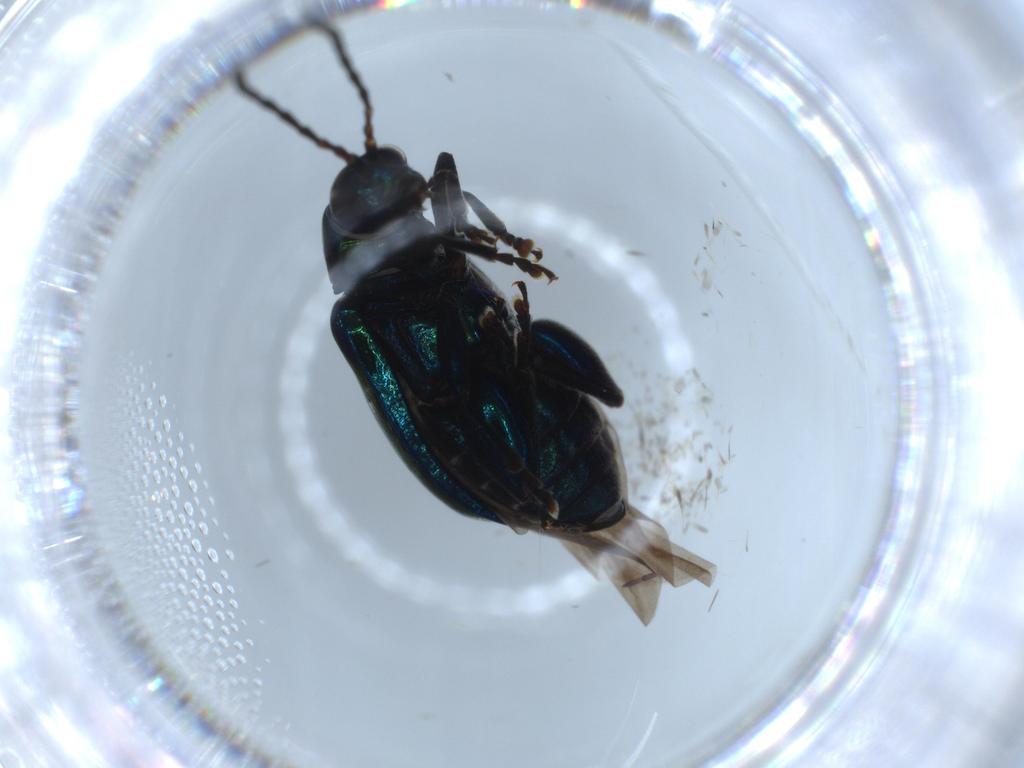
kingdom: Animalia
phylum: Arthropoda
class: Insecta
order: Coleoptera
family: Chrysomelidae
